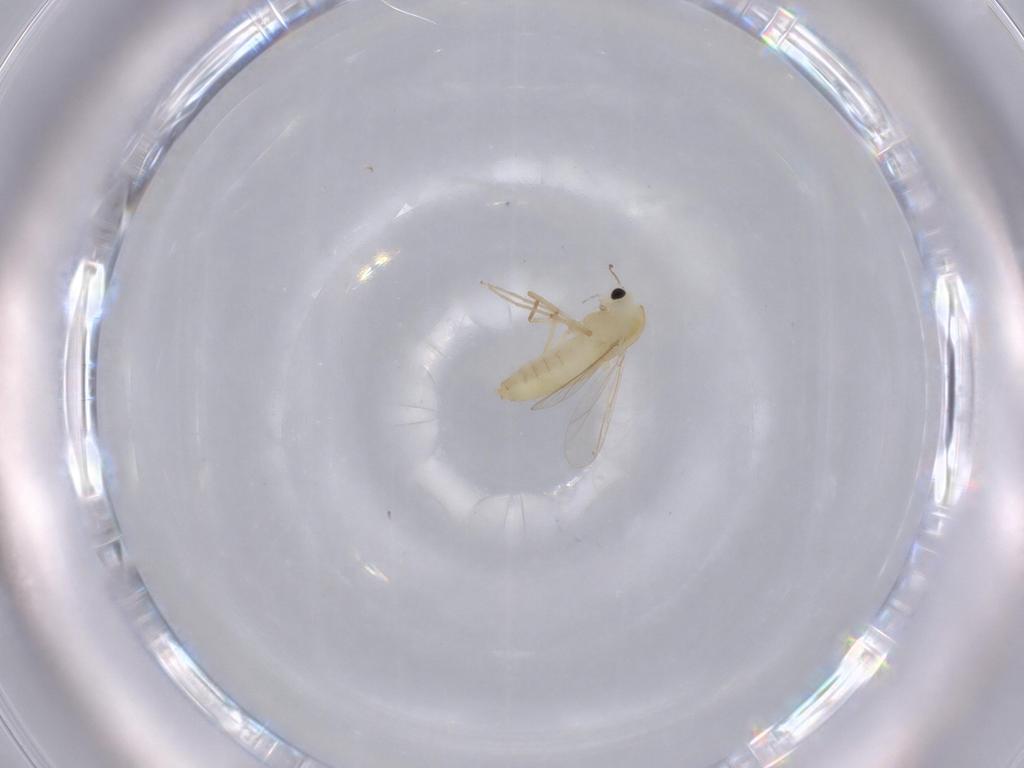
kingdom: Animalia
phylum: Arthropoda
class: Insecta
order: Diptera
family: Chironomidae
